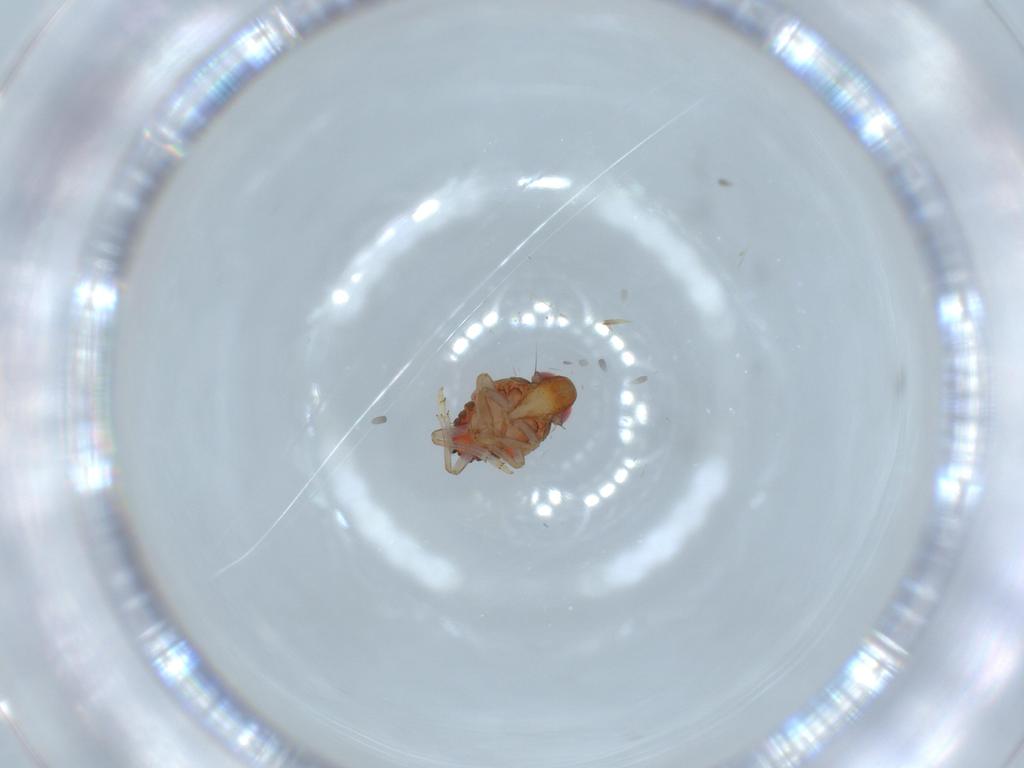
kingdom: Animalia
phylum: Arthropoda
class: Insecta
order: Hemiptera
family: Issidae
